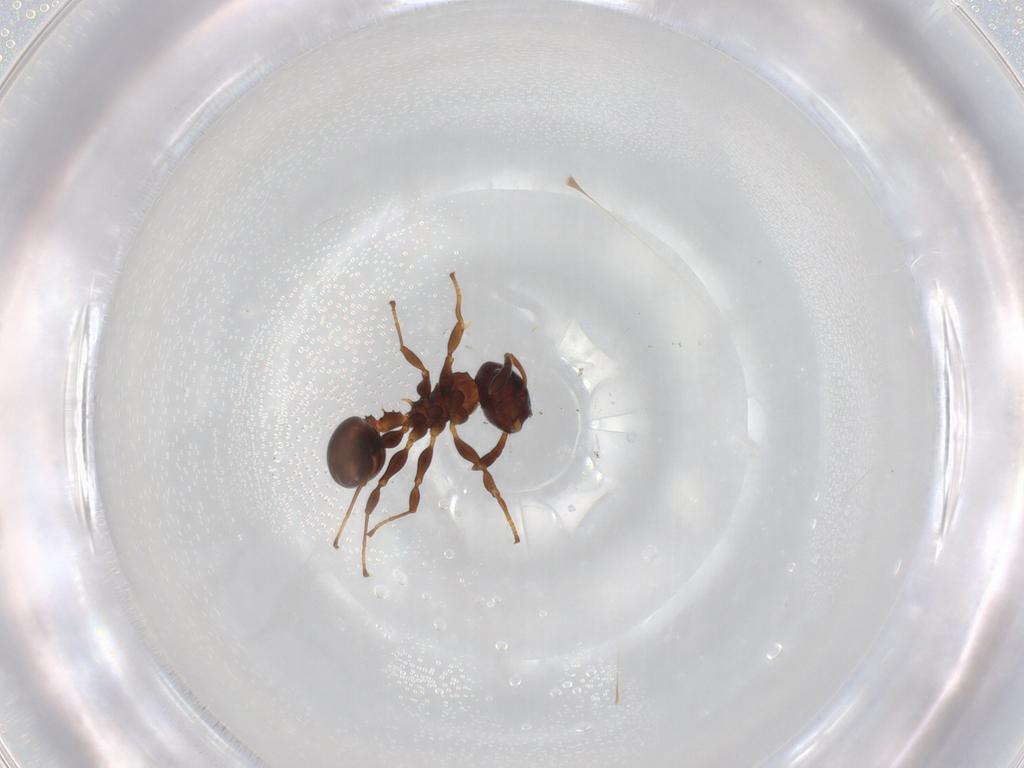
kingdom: Animalia
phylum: Arthropoda
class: Insecta
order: Hymenoptera
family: Formicidae
